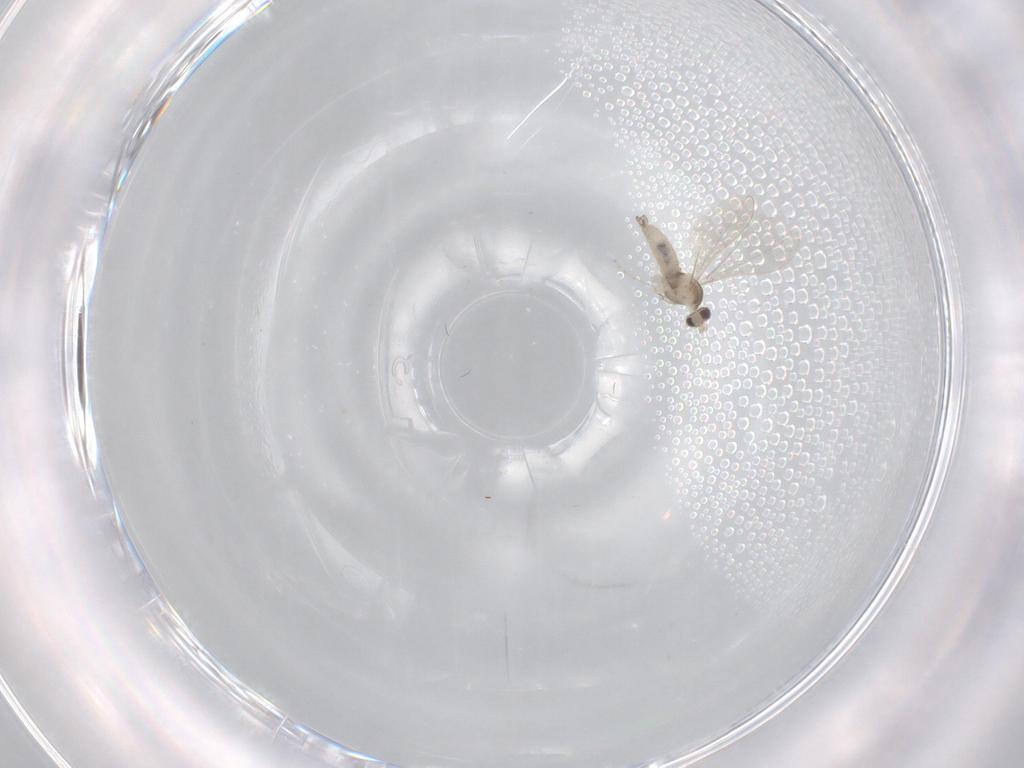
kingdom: Animalia
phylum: Arthropoda
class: Insecta
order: Diptera
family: Cecidomyiidae
